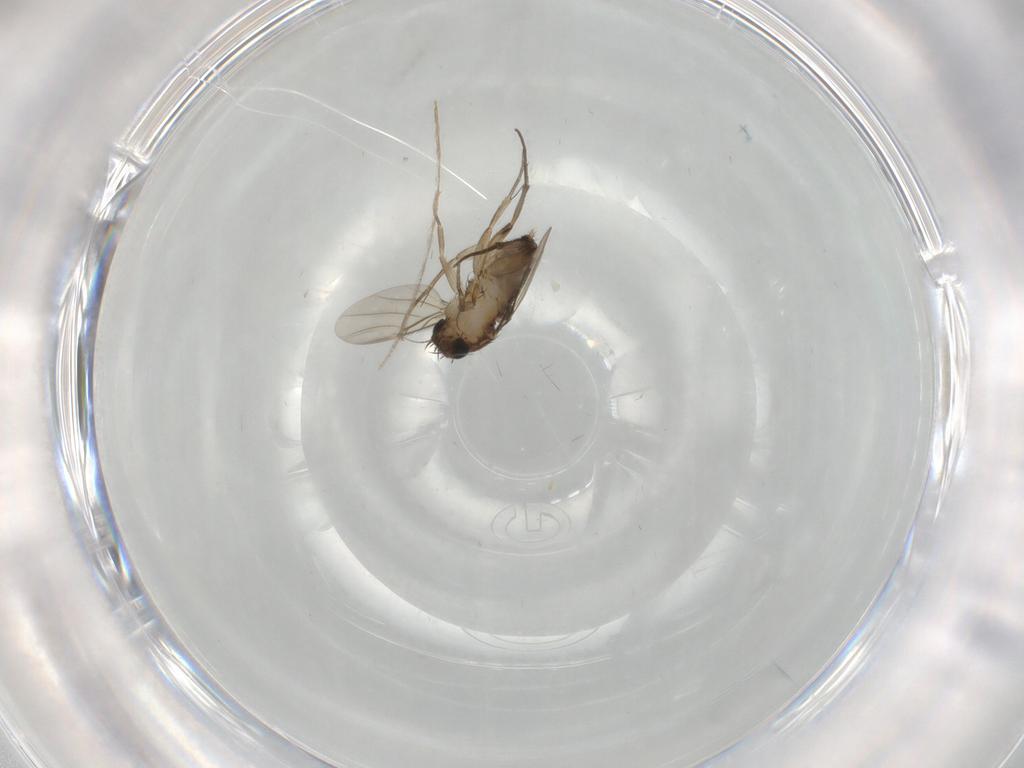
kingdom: Animalia
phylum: Arthropoda
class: Insecta
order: Diptera
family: Phoridae
